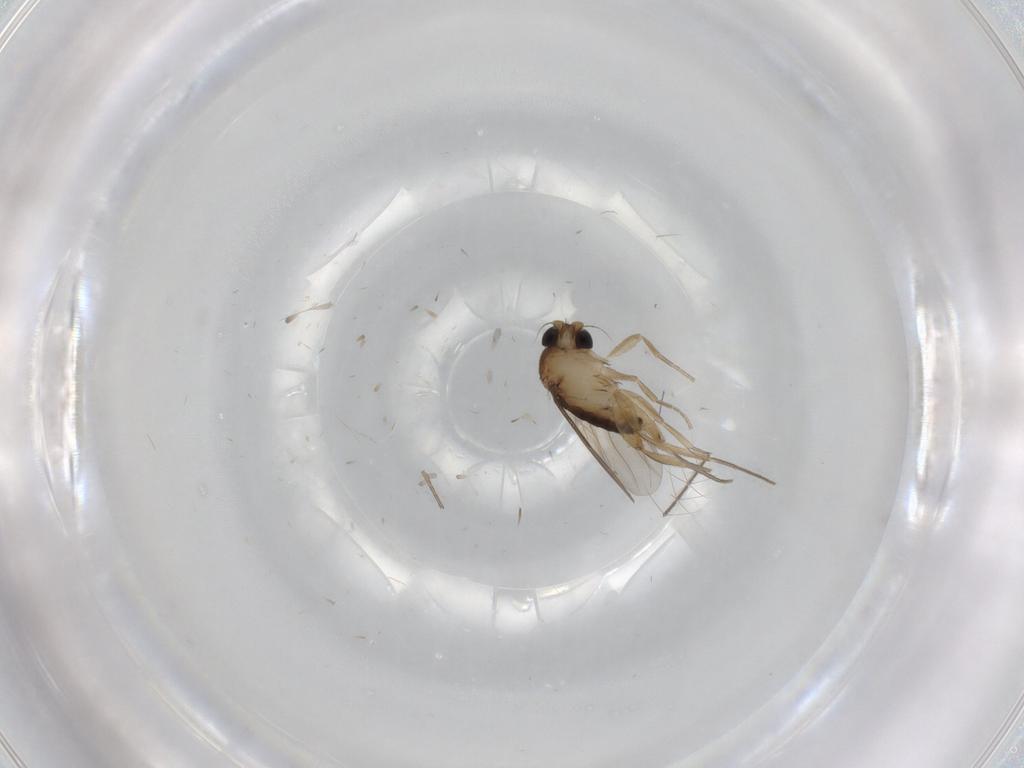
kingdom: Animalia
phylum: Arthropoda
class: Insecta
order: Diptera
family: Phoridae
